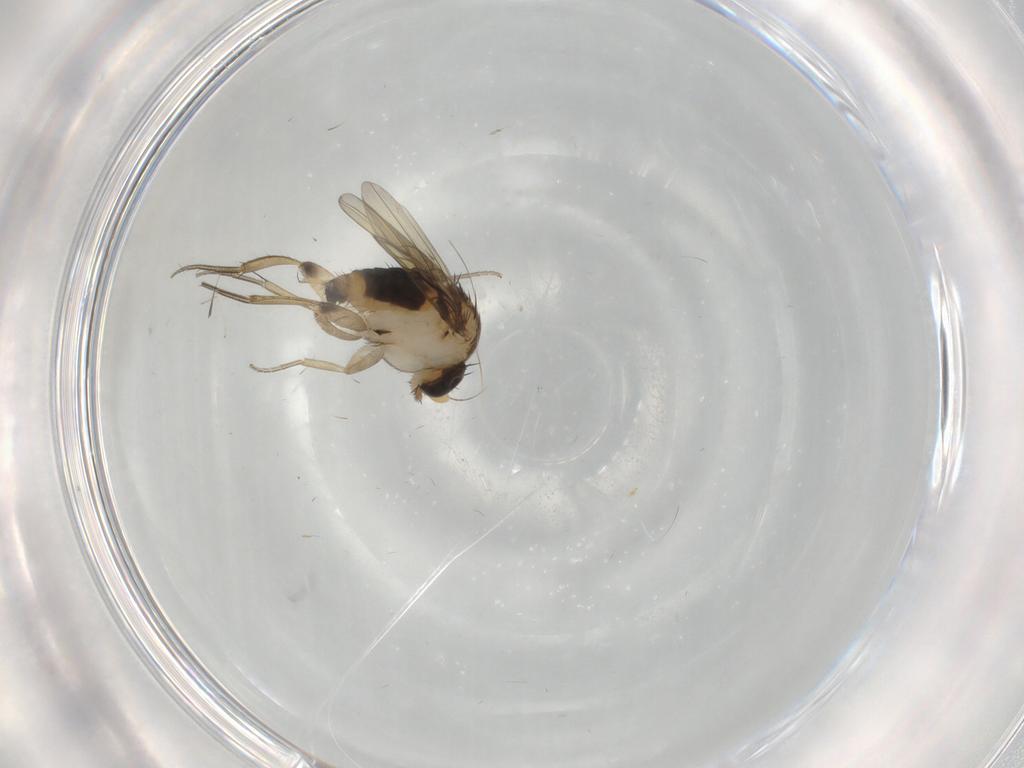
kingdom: Animalia
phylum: Arthropoda
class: Insecta
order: Diptera
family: Phoridae
